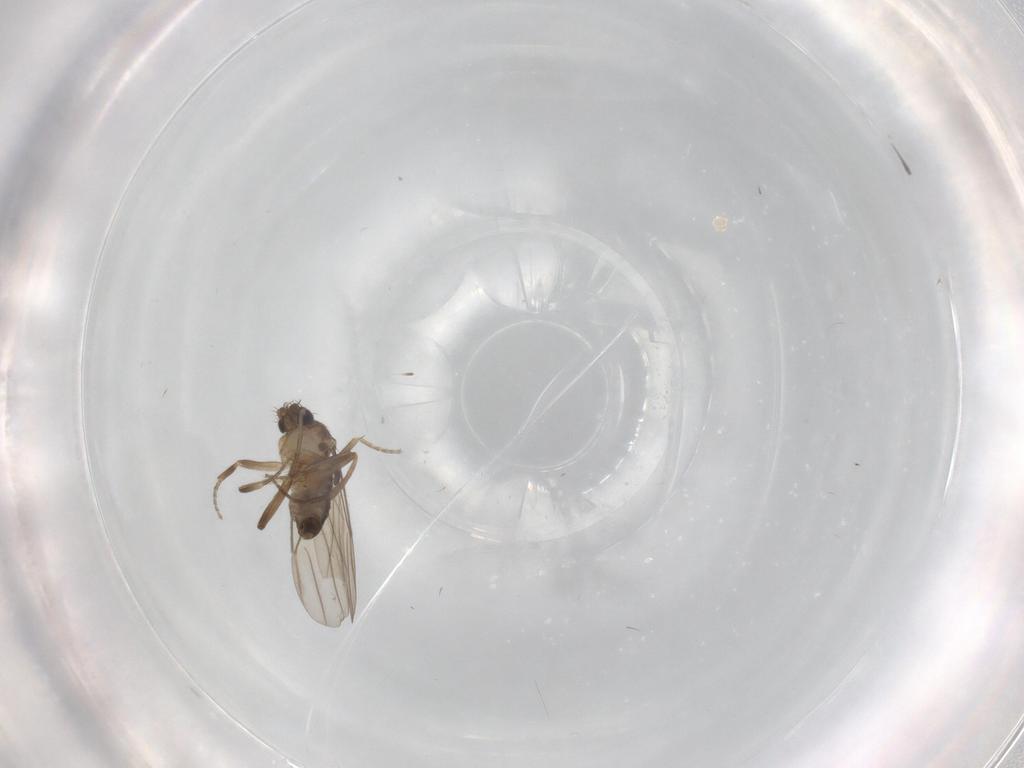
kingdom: Animalia
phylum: Arthropoda
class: Insecta
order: Diptera
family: Phoridae
